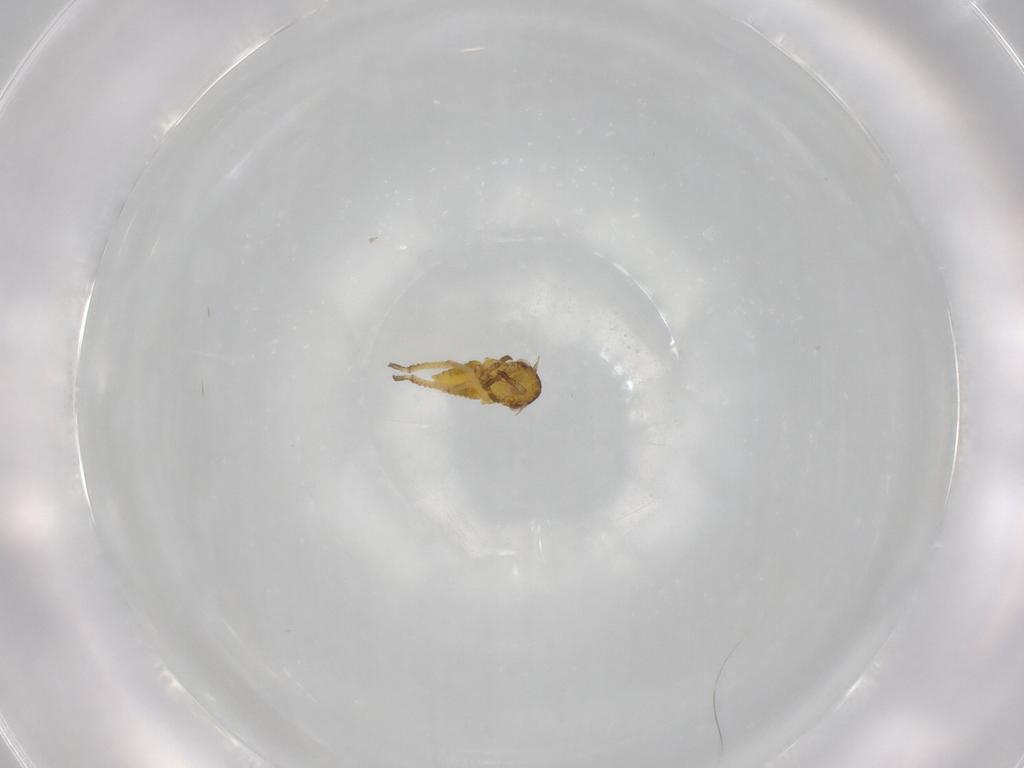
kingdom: Animalia
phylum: Arthropoda
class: Insecta
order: Hemiptera
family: Cicadellidae
